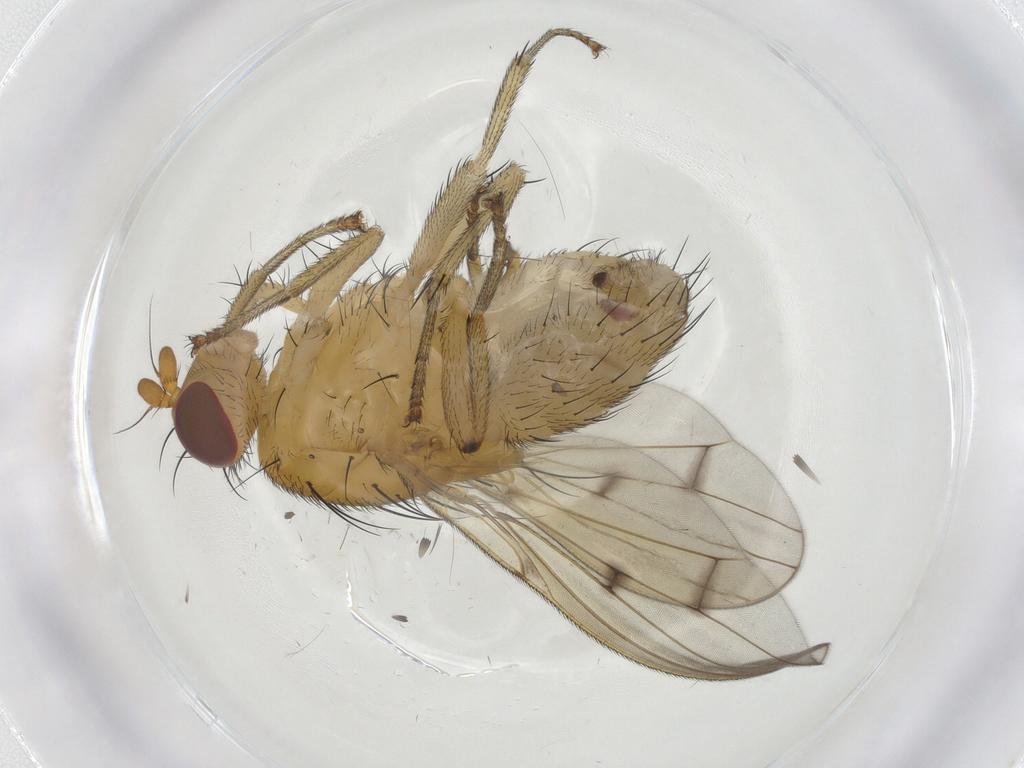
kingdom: Animalia
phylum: Arthropoda
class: Insecta
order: Diptera
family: Lauxaniidae
